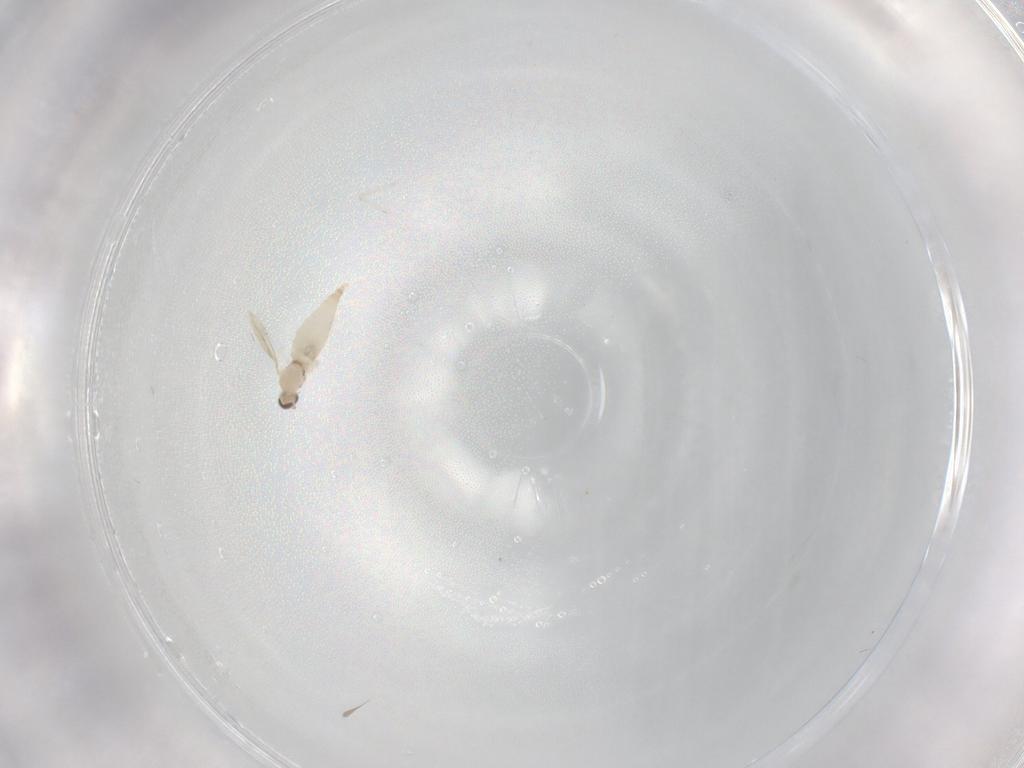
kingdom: Animalia
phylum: Arthropoda
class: Insecta
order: Diptera
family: Cecidomyiidae
